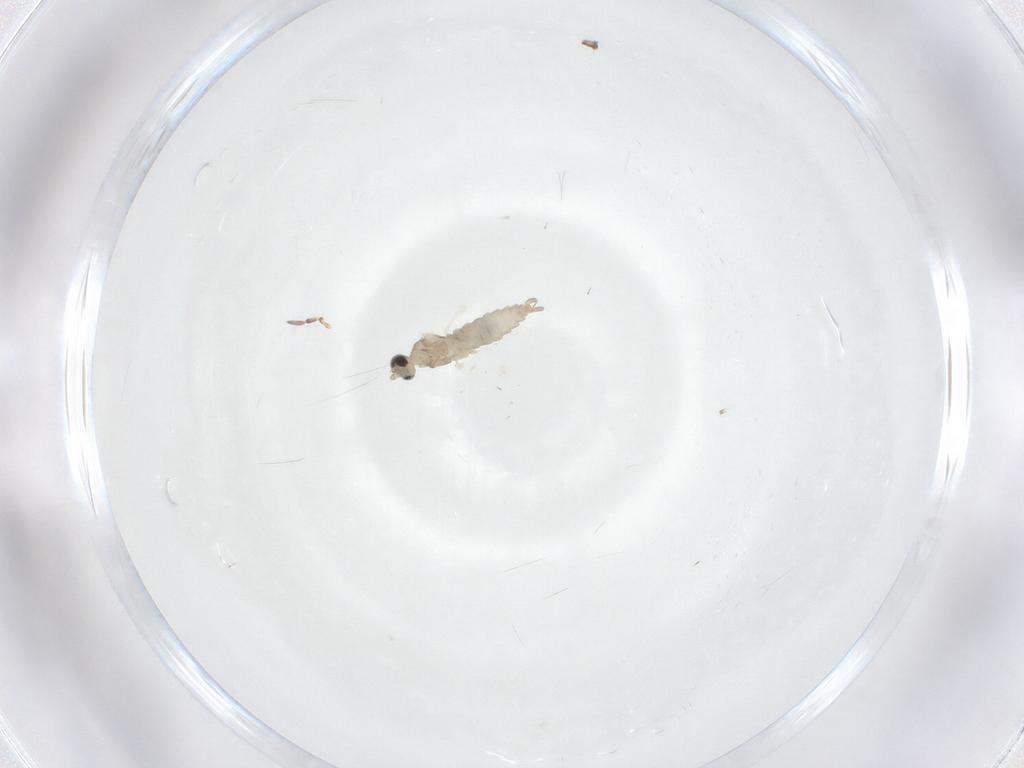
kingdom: Animalia
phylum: Arthropoda
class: Insecta
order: Diptera
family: Cecidomyiidae
